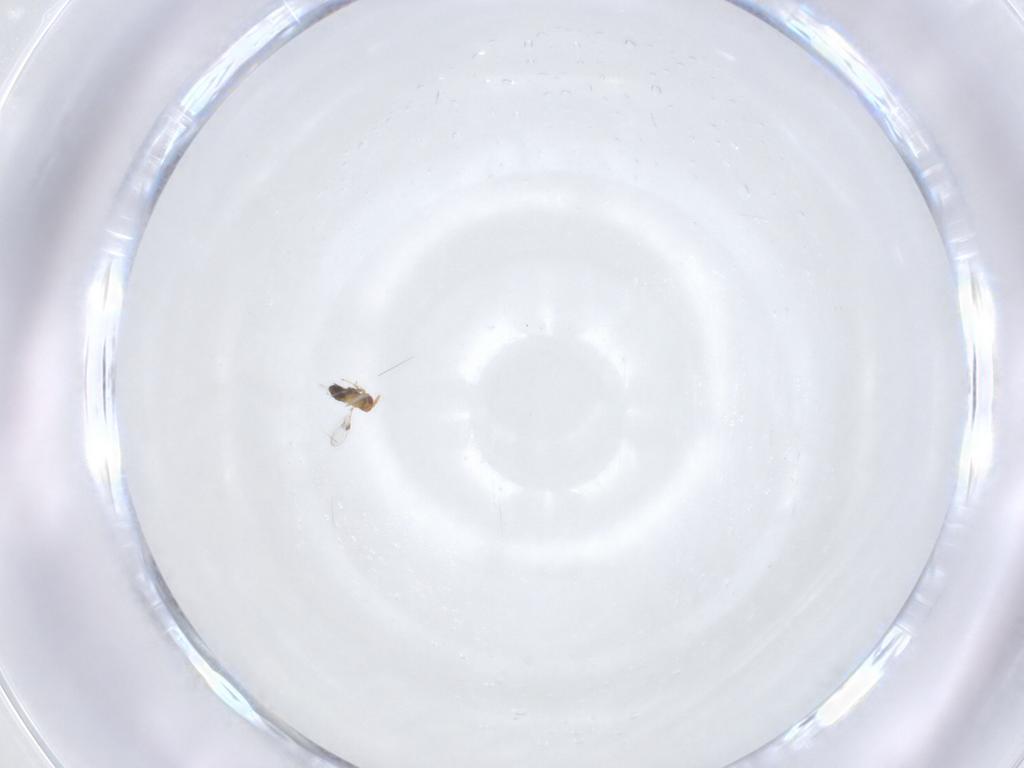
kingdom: Animalia
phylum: Arthropoda
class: Insecta
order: Hymenoptera
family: Trichogrammatidae
